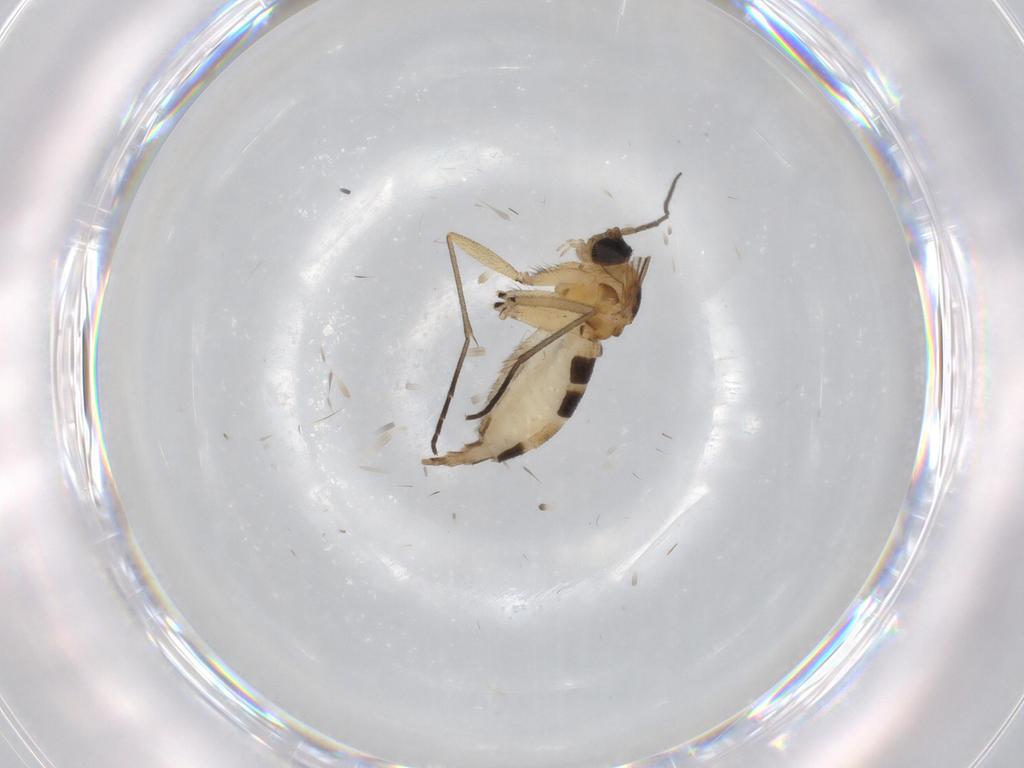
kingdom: Animalia
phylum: Arthropoda
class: Insecta
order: Diptera
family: Sciaridae
